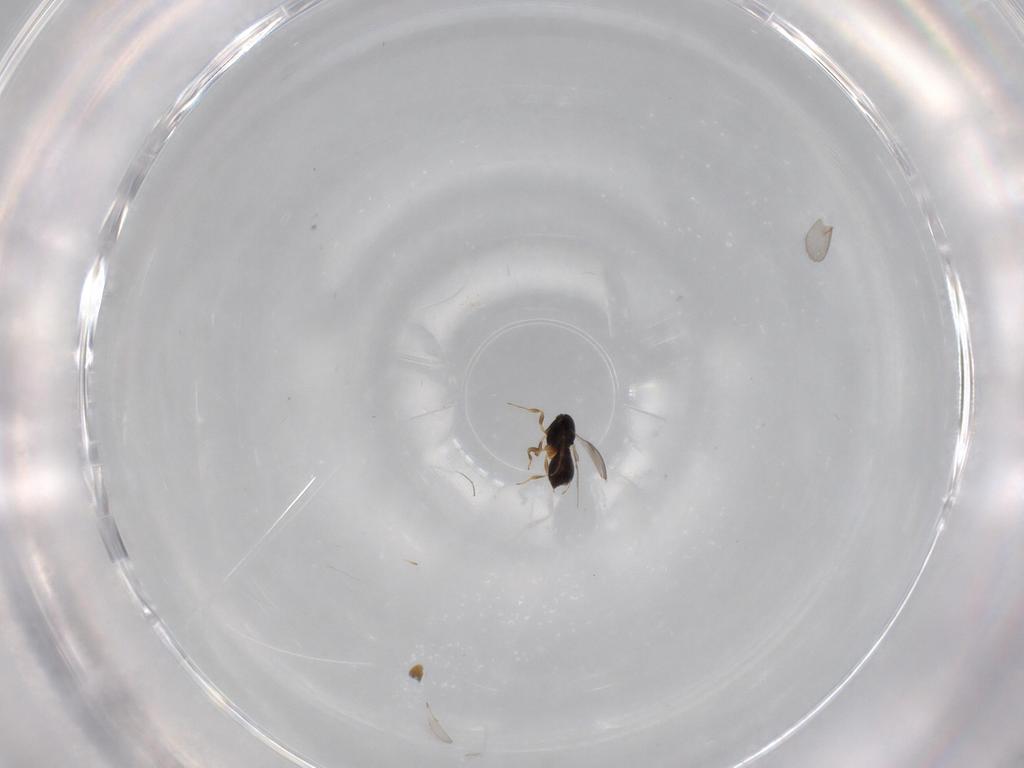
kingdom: Animalia
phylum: Arthropoda
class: Insecta
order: Hymenoptera
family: Scelionidae
